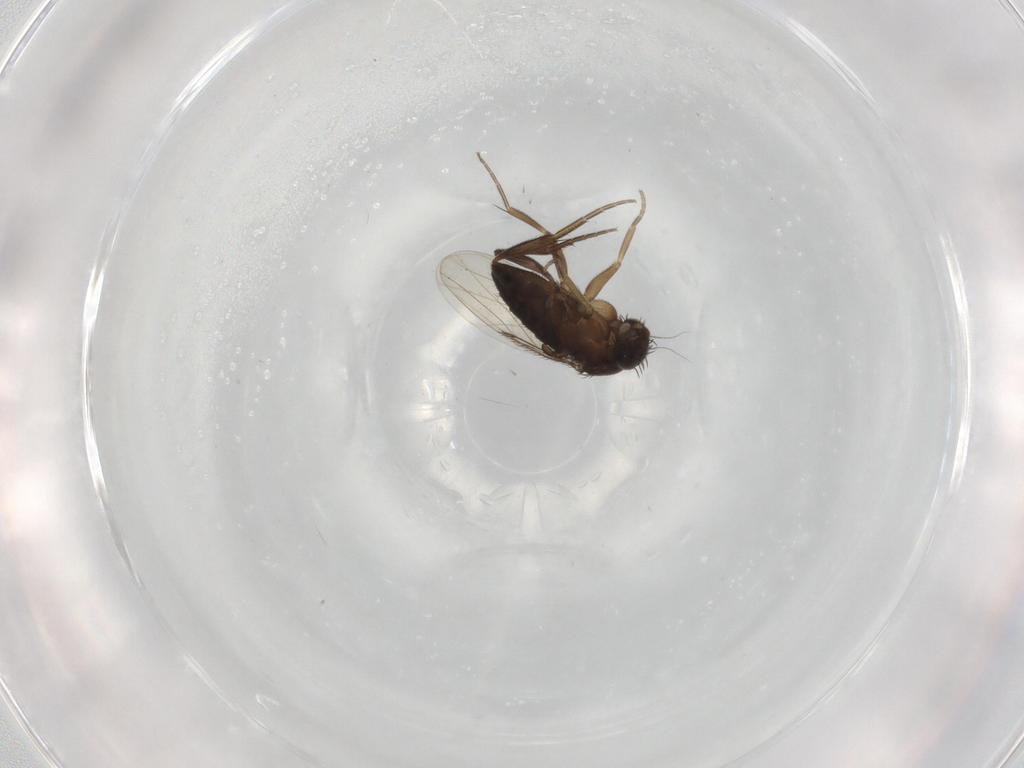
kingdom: Animalia
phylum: Arthropoda
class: Insecta
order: Diptera
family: Phoridae
